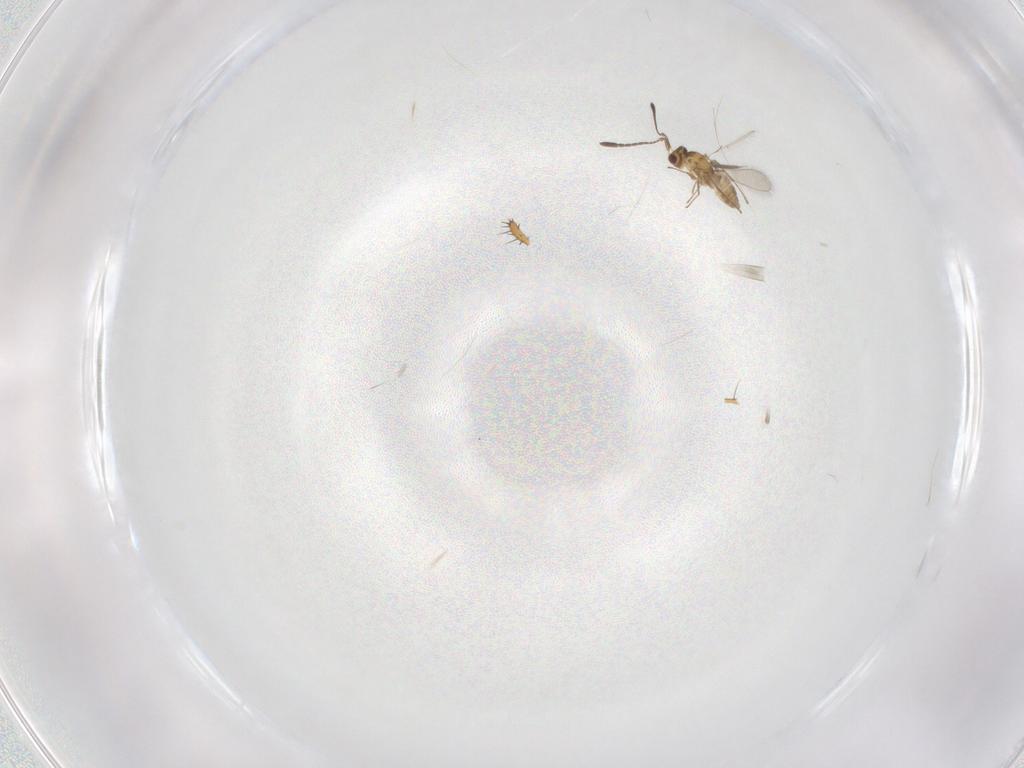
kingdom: Animalia
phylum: Arthropoda
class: Insecta
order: Hymenoptera
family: Mymaridae
